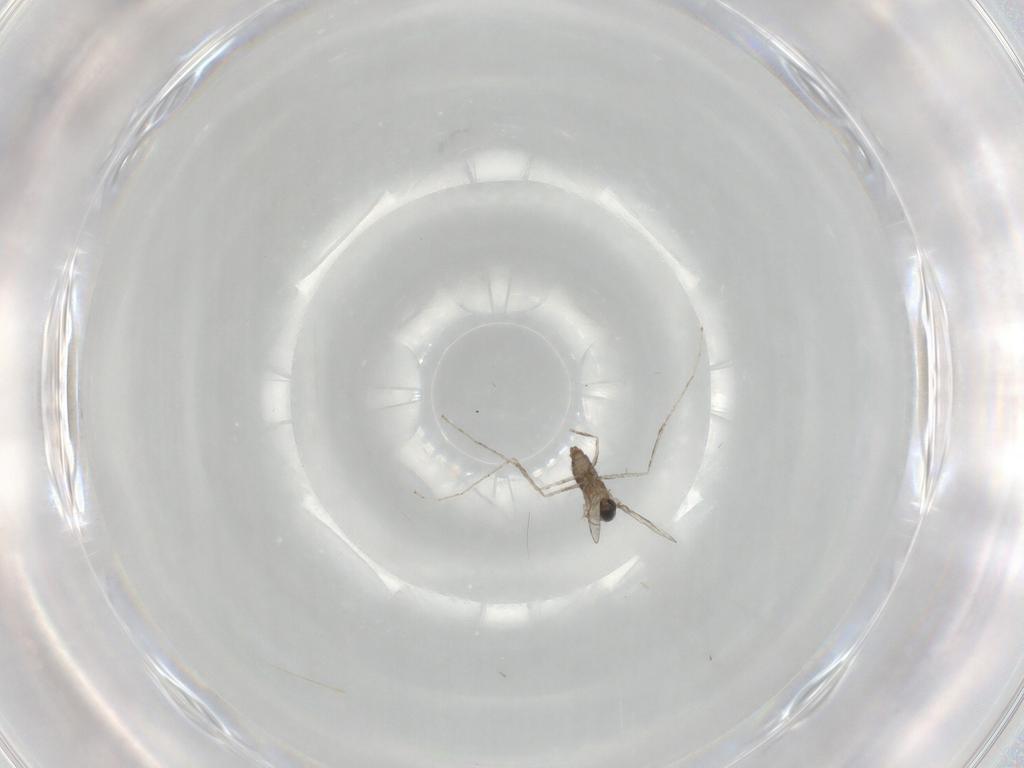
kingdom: Animalia
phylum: Arthropoda
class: Insecta
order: Diptera
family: Cecidomyiidae
